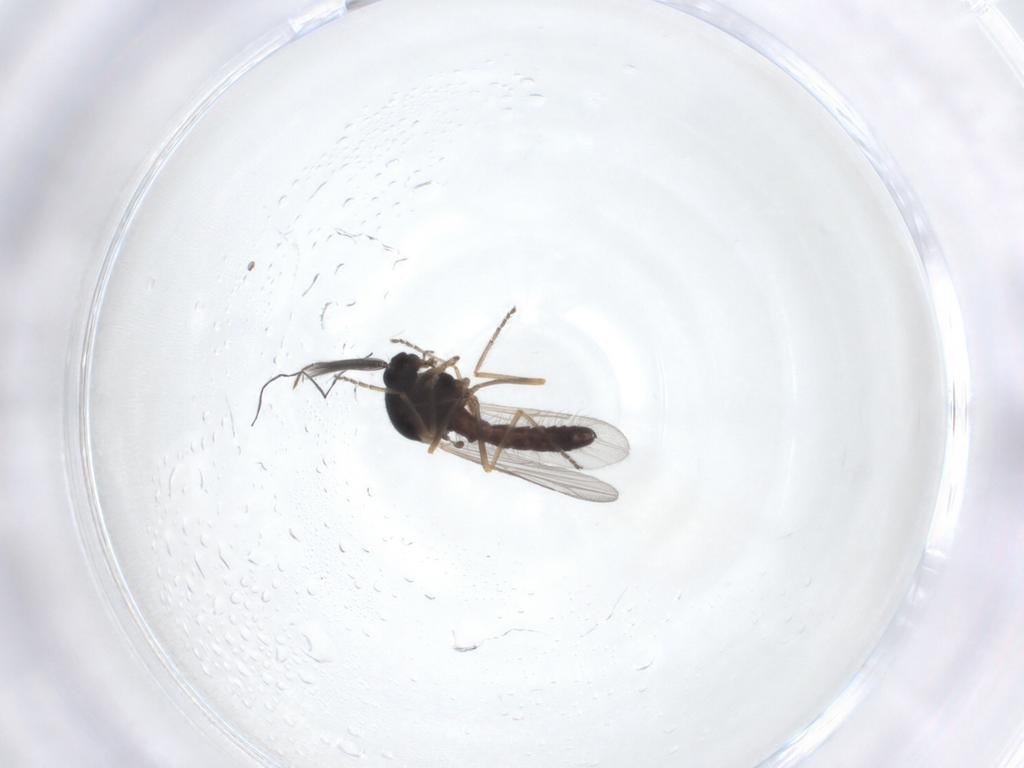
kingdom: Animalia
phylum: Arthropoda
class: Insecta
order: Diptera
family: Ceratopogonidae
